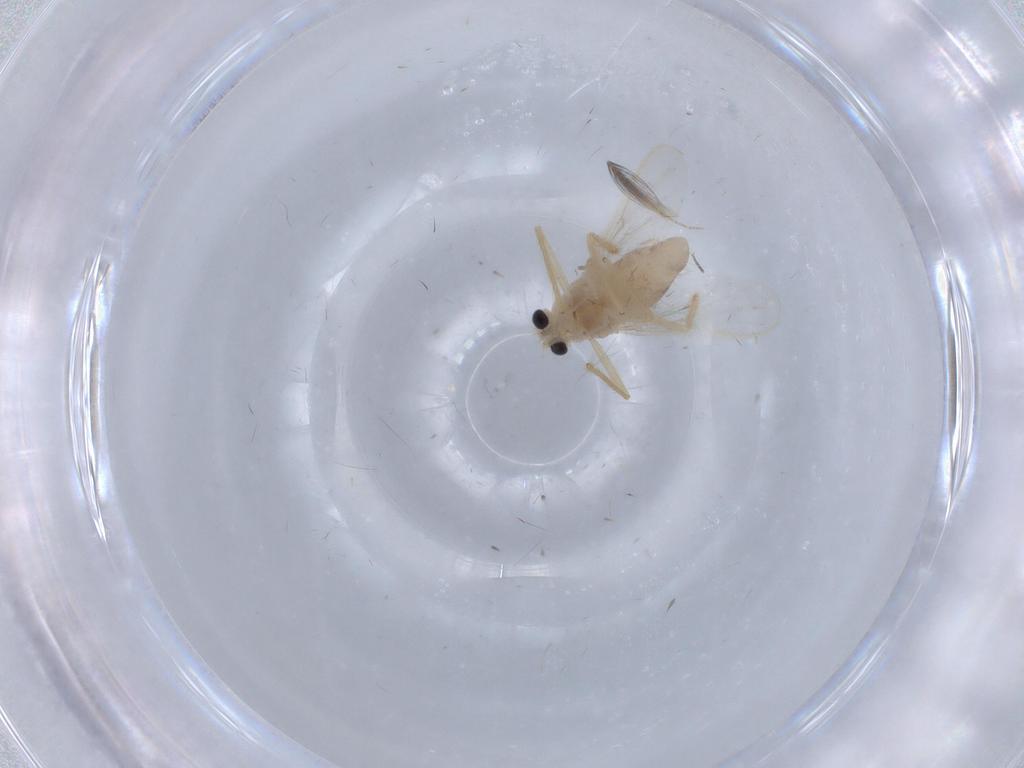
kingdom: Animalia
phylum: Arthropoda
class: Insecta
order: Diptera
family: Chironomidae
